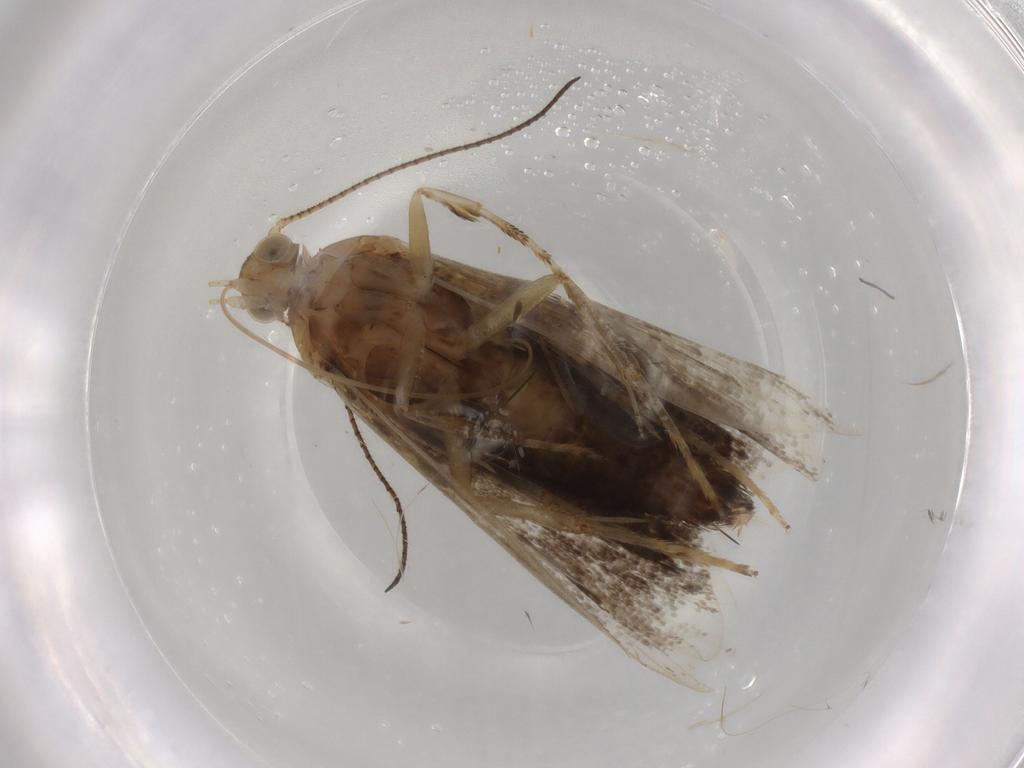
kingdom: Animalia
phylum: Arthropoda
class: Insecta
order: Lepidoptera
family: Choreutidae
